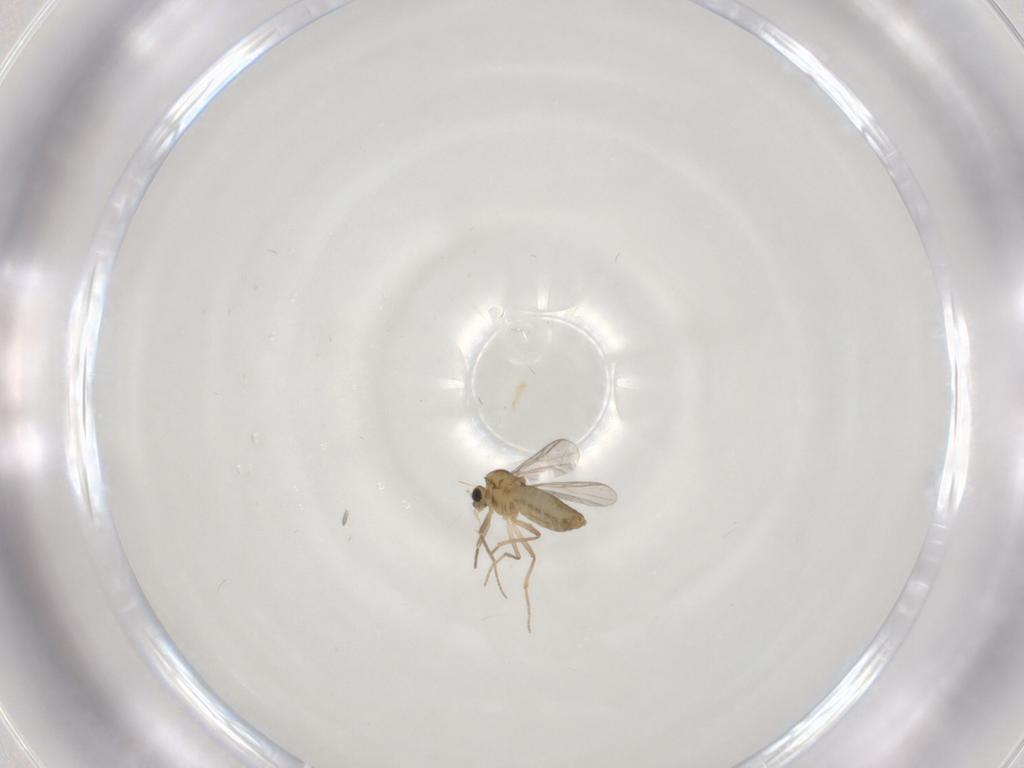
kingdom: Animalia
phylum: Arthropoda
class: Insecta
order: Diptera
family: Chironomidae
